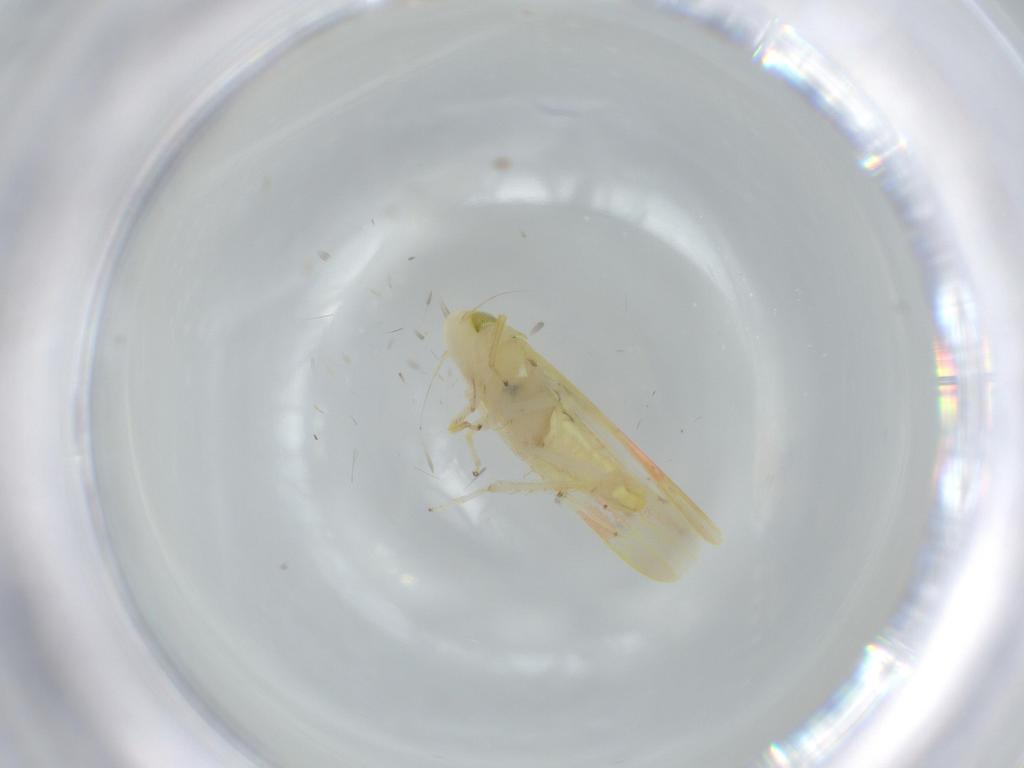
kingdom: Animalia
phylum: Arthropoda
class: Insecta
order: Hemiptera
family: Cicadellidae
